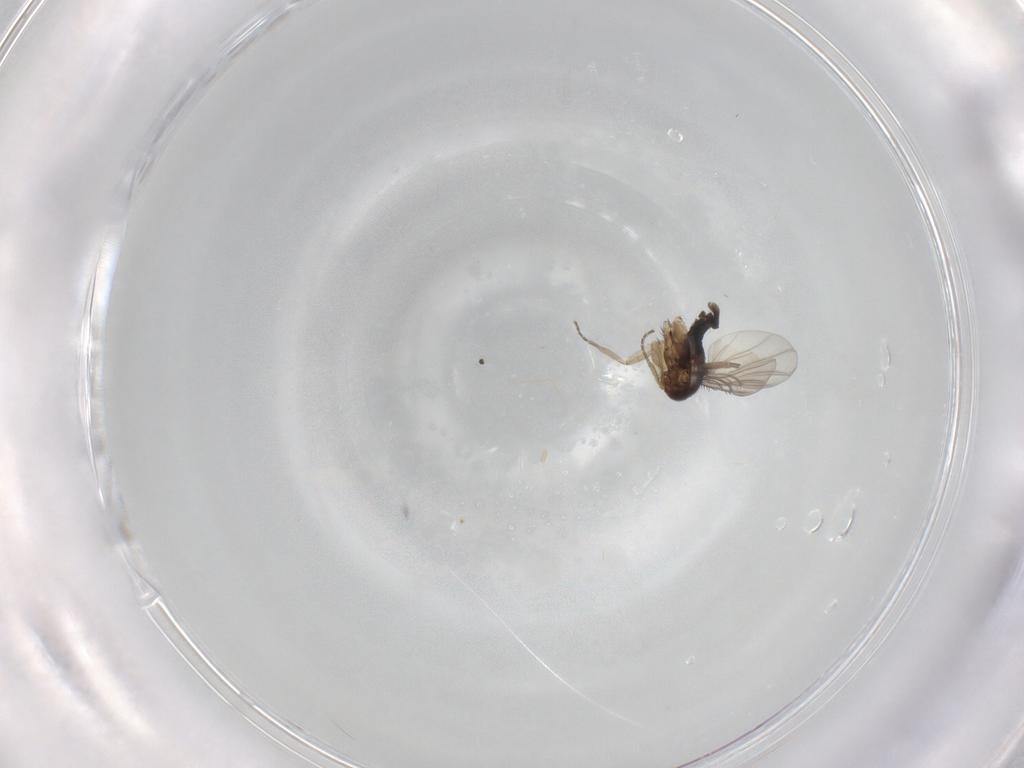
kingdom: Animalia
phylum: Arthropoda
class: Insecta
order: Diptera
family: Phoridae
